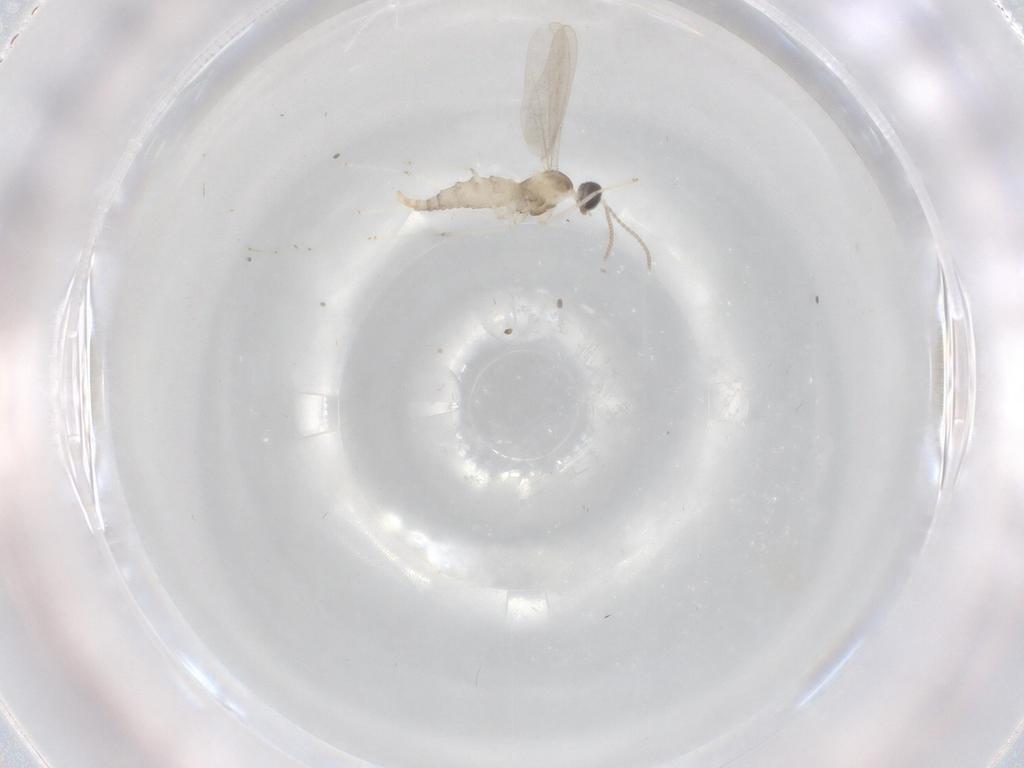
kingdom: Animalia
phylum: Arthropoda
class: Insecta
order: Diptera
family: Cecidomyiidae
